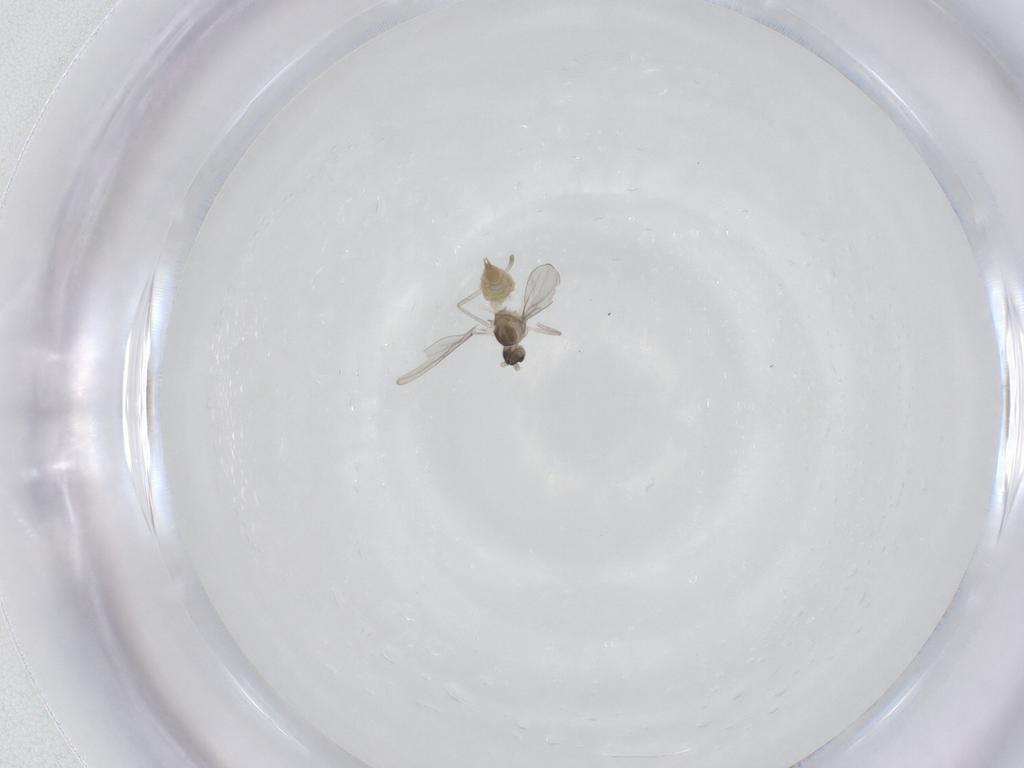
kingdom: Animalia
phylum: Arthropoda
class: Insecta
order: Diptera
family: Cecidomyiidae
